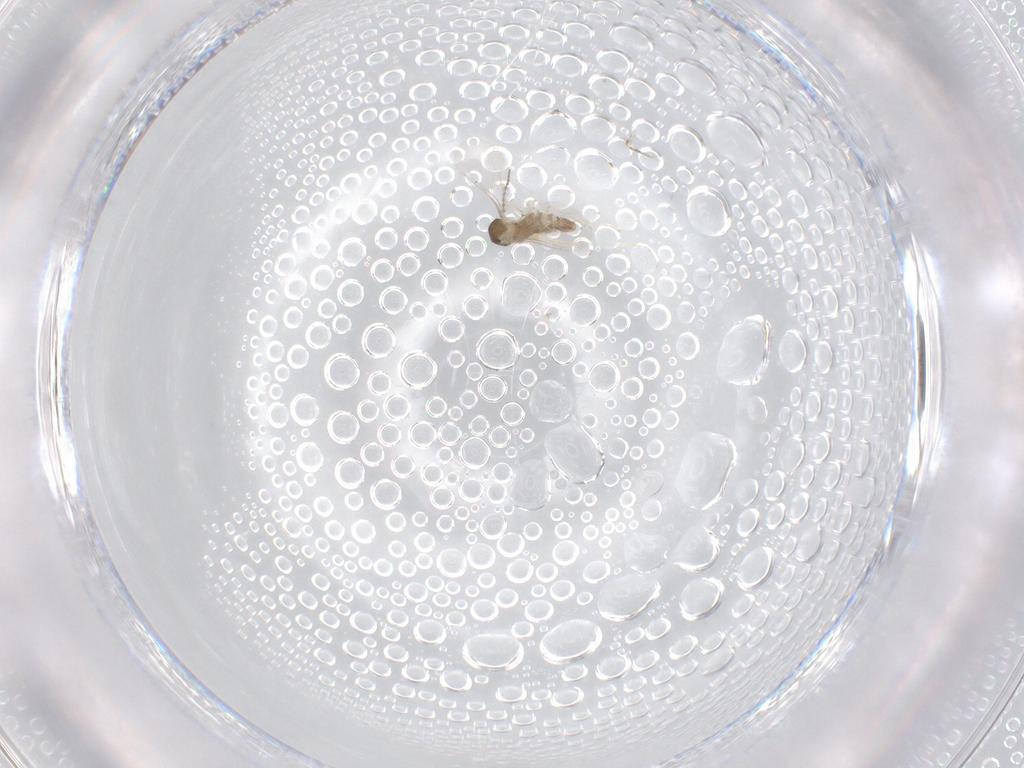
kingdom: Animalia
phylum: Arthropoda
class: Insecta
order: Diptera
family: Cecidomyiidae
